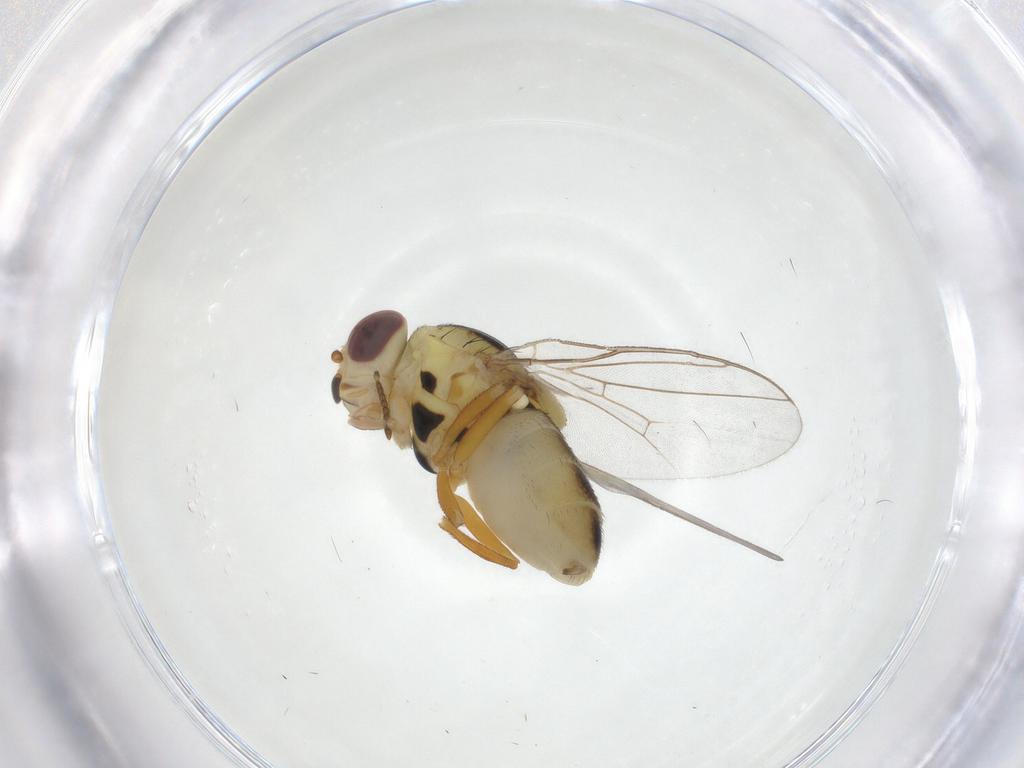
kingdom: Animalia
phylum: Arthropoda
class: Insecta
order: Diptera
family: Chloropidae
